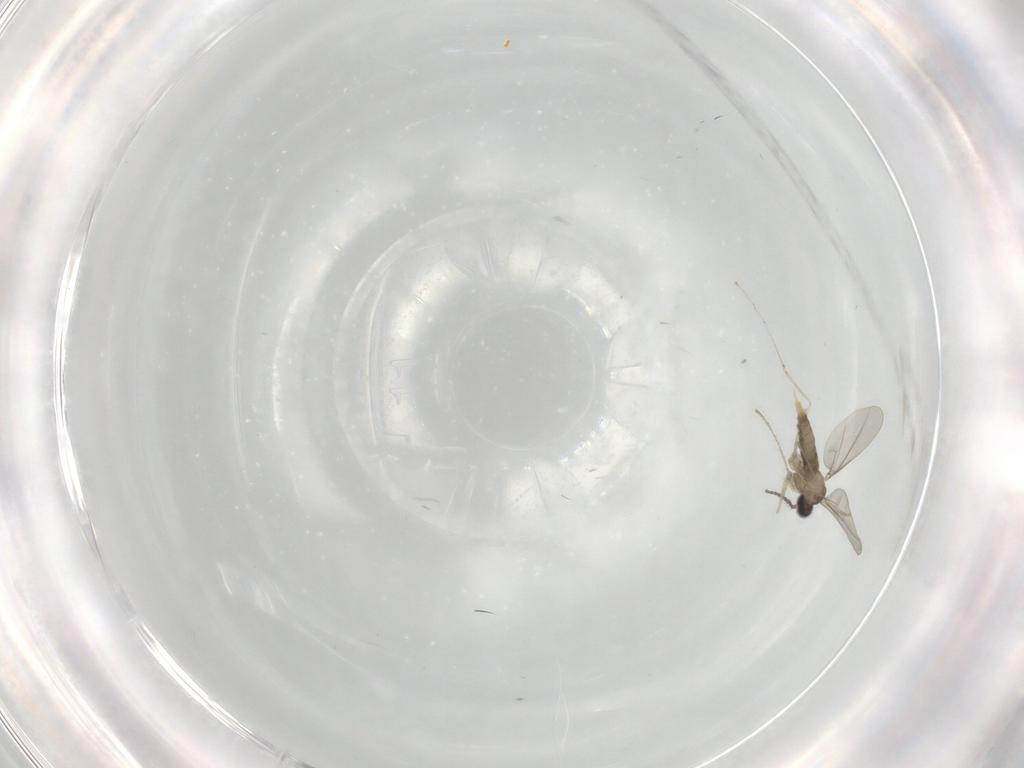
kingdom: Animalia
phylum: Arthropoda
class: Insecta
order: Diptera
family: Cecidomyiidae
